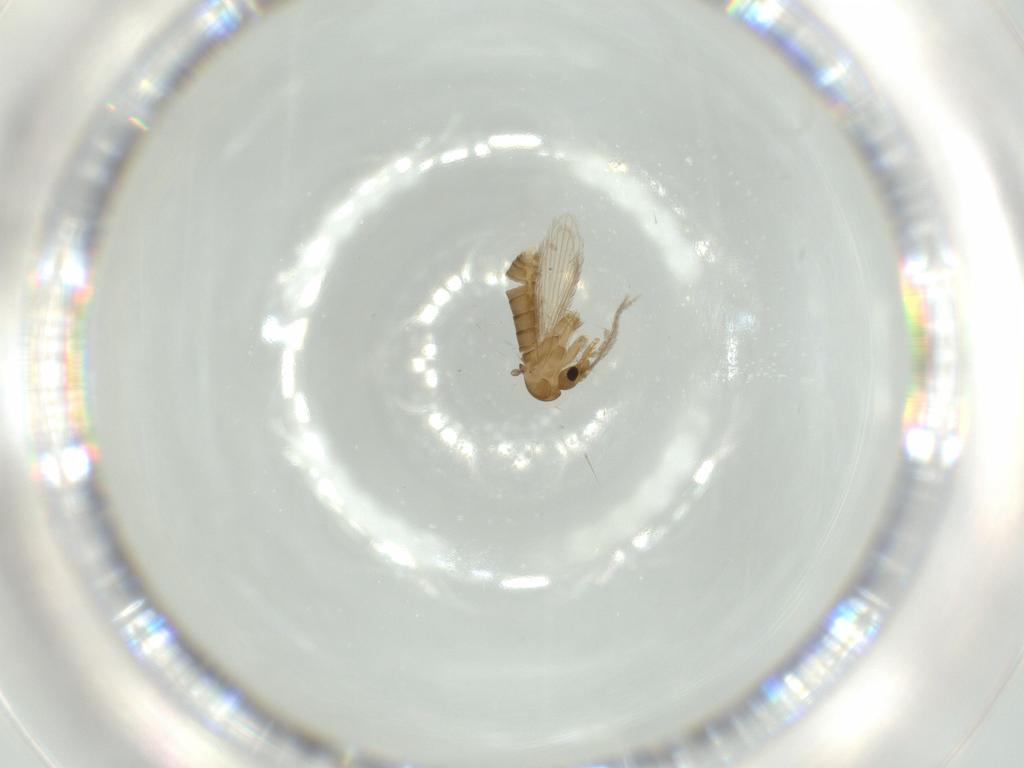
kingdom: Animalia
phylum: Arthropoda
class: Insecta
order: Diptera
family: Psychodidae
